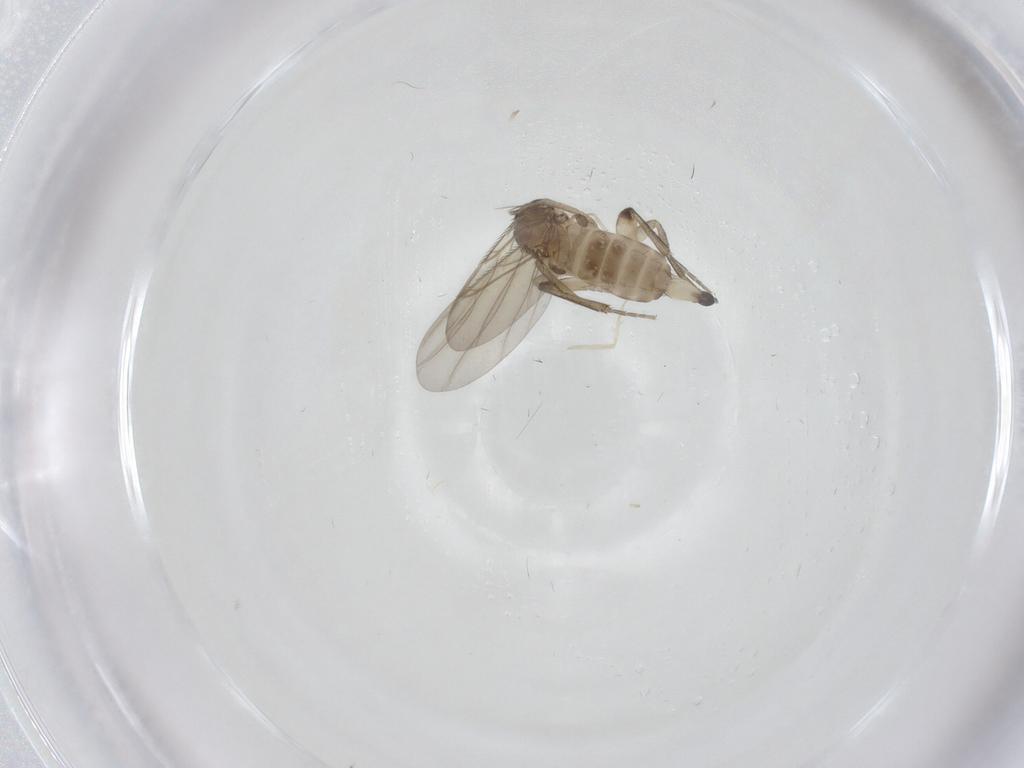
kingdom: Animalia
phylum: Arthropoda
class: Insecta
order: Diptera
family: Phoridae
